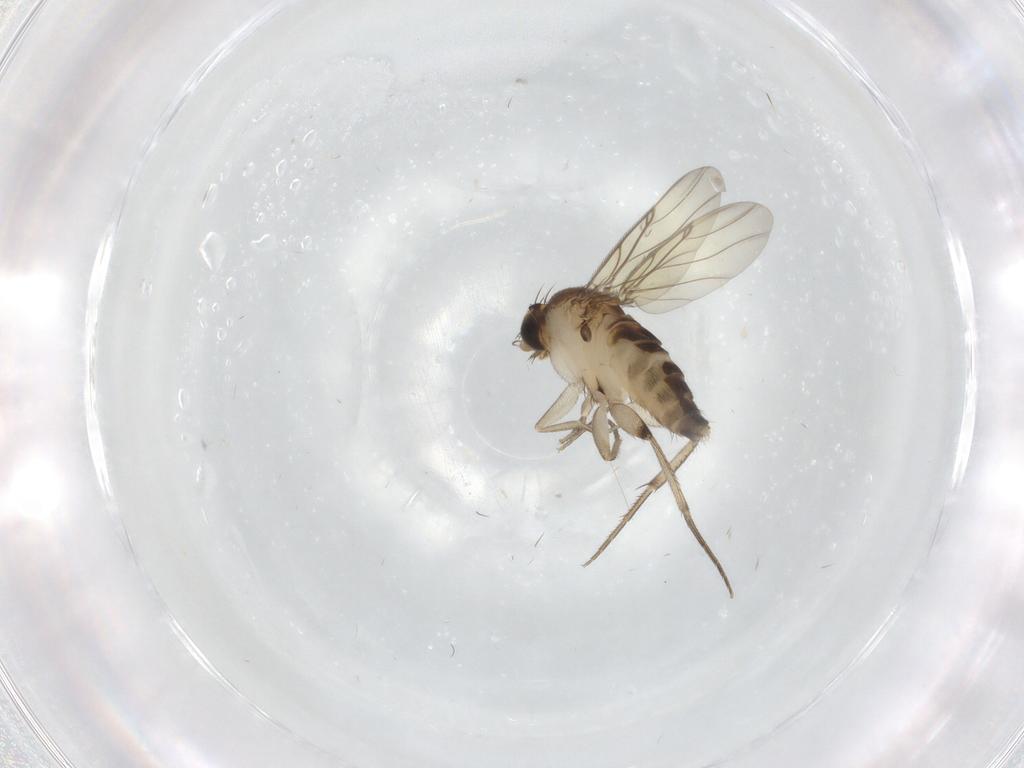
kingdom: Animalia
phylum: Arthropoda
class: Insecta
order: Diptera
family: Phoridae
